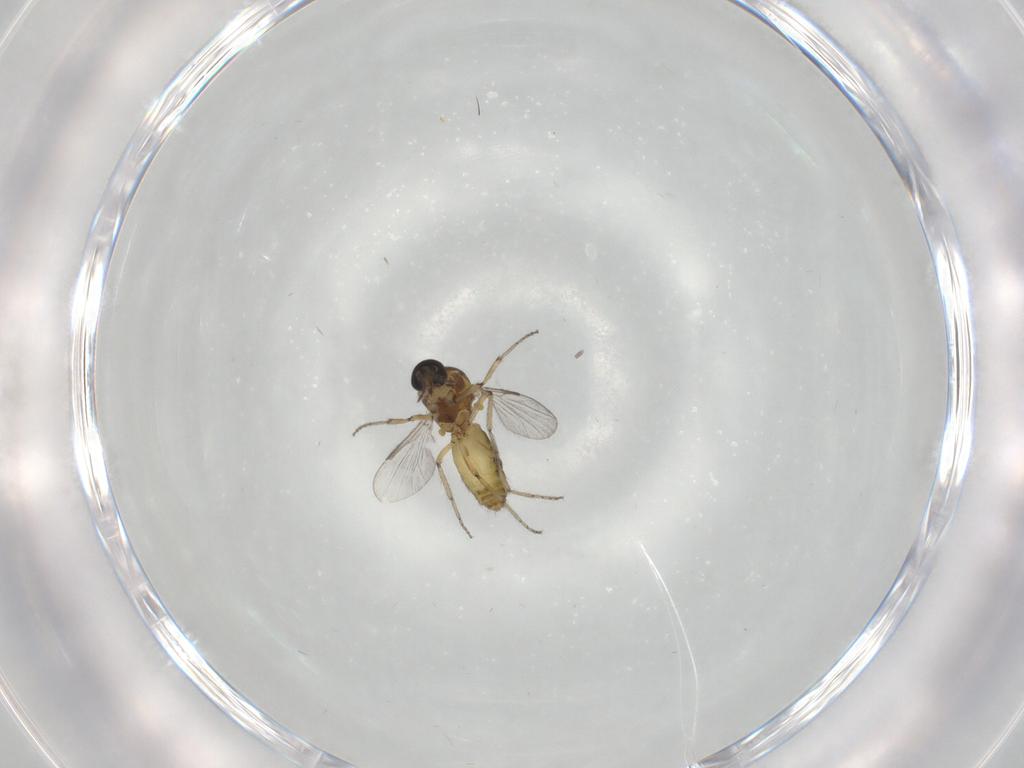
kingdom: Animalia
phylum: Arthropoda
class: Insecta
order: Diptera
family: Ceratopogonidae
